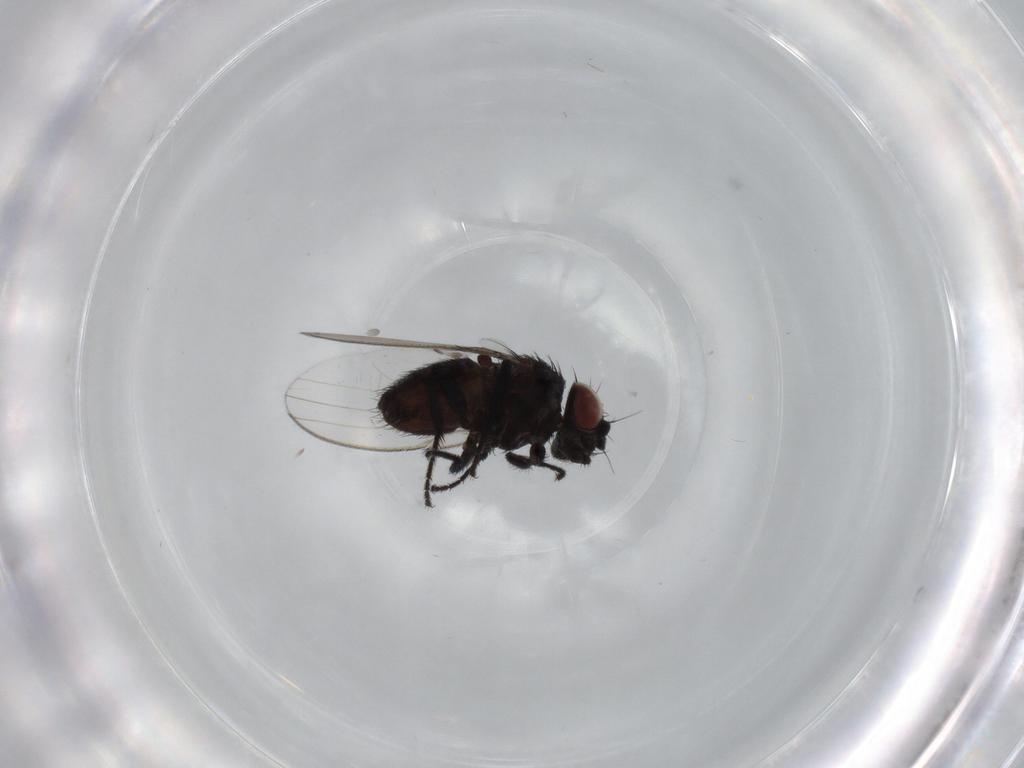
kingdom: Animalia
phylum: Arthropoda
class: Insecta
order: Diptera
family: Milichiidae
